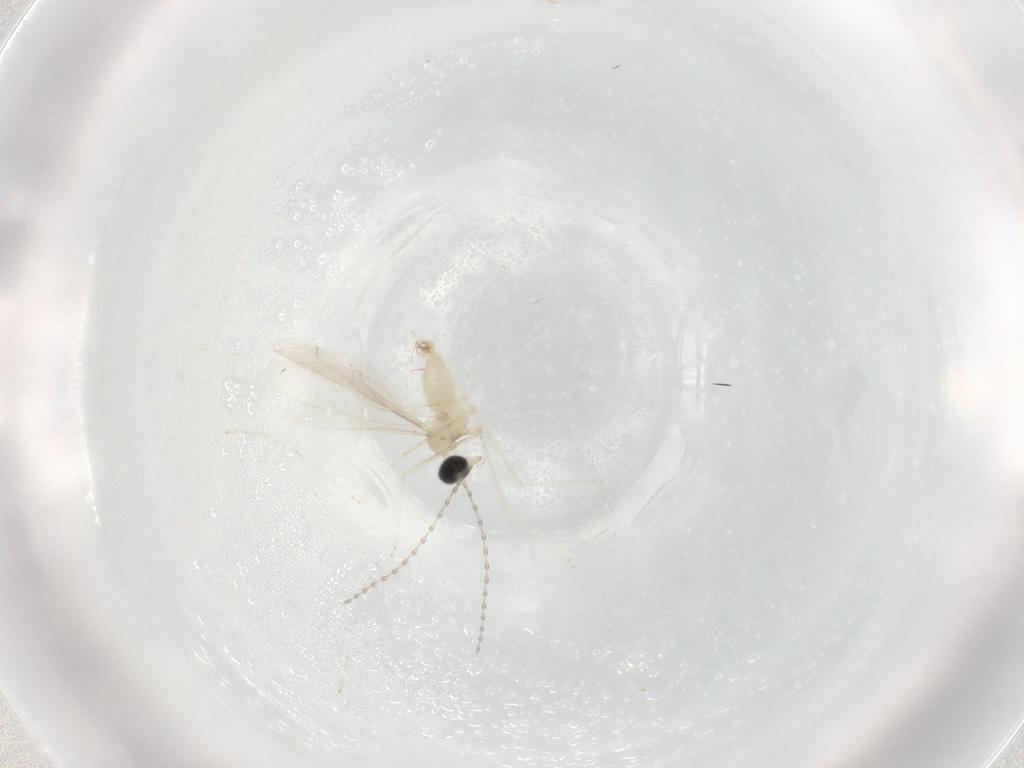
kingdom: Animalia
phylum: Arthropoda
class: Insecta
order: Diptera
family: Cecidomyiidae
